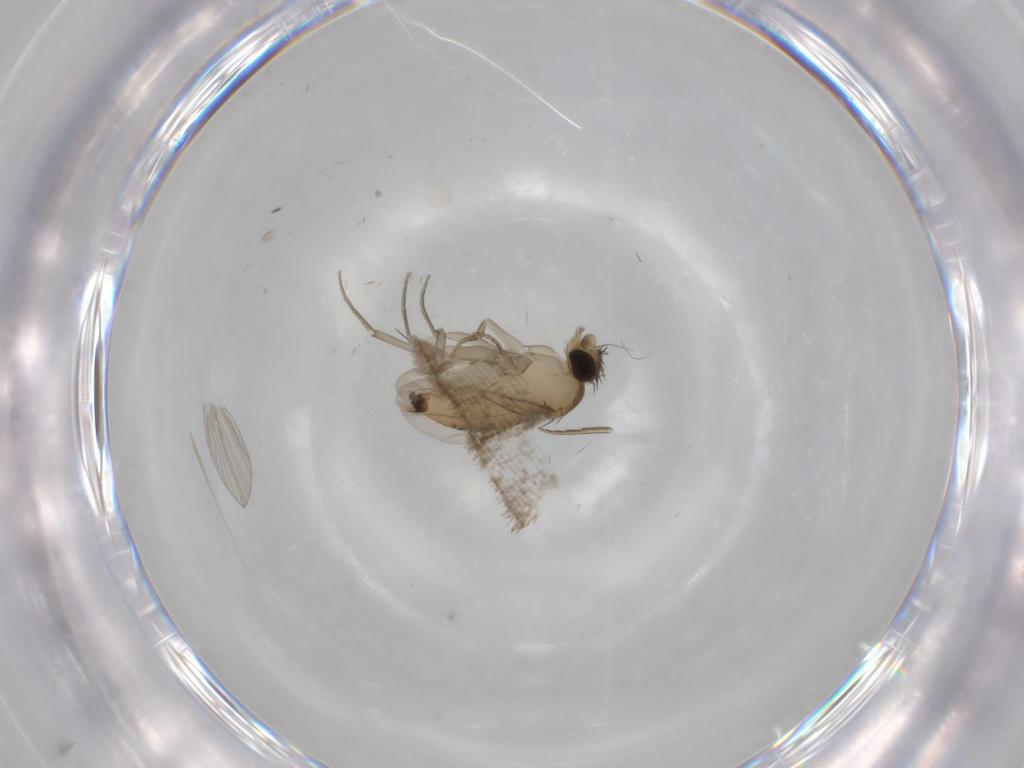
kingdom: Animalia
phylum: Arthropoda
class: Insecta
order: Diptera
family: Psychodidae
